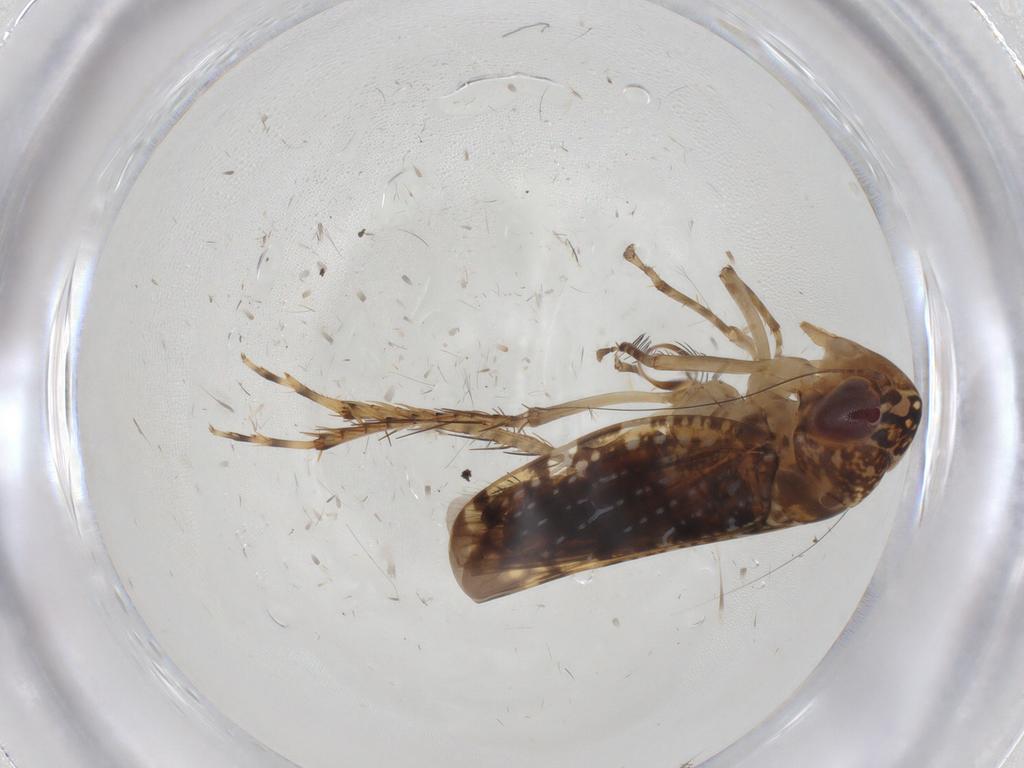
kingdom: Animalia
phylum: Arthropoda
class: Insecta
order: Hemiptera
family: Cicadellidae
